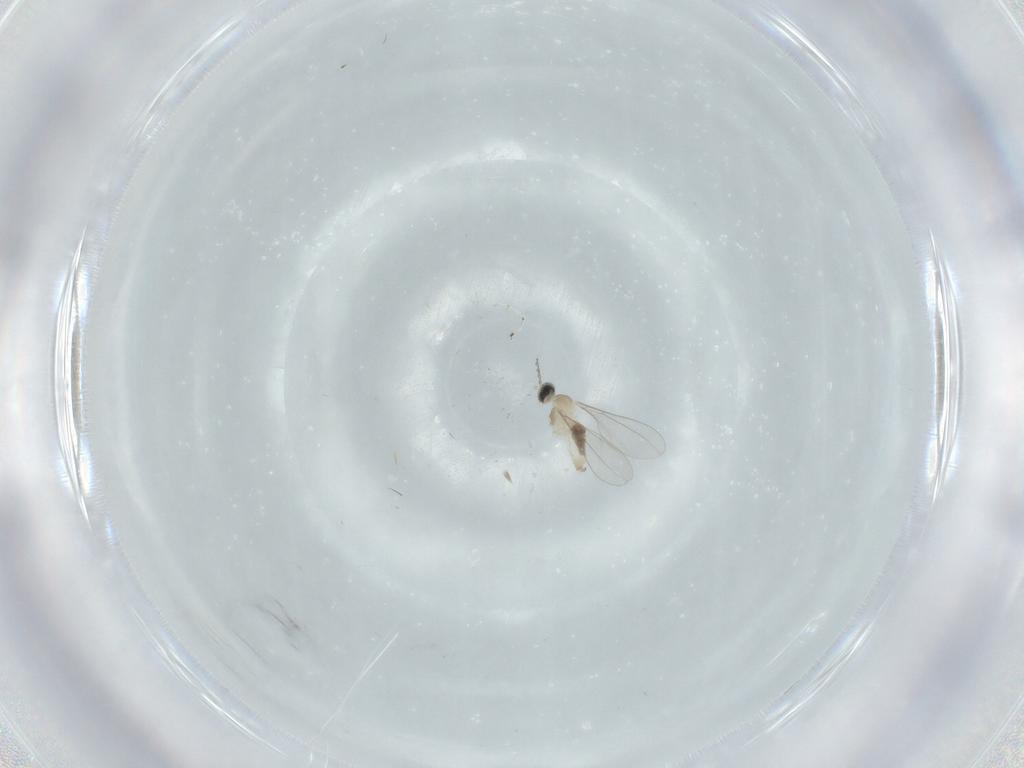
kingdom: Animalia
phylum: Arthropoda
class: Insecta
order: Diptera
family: Cecidomyiidae
